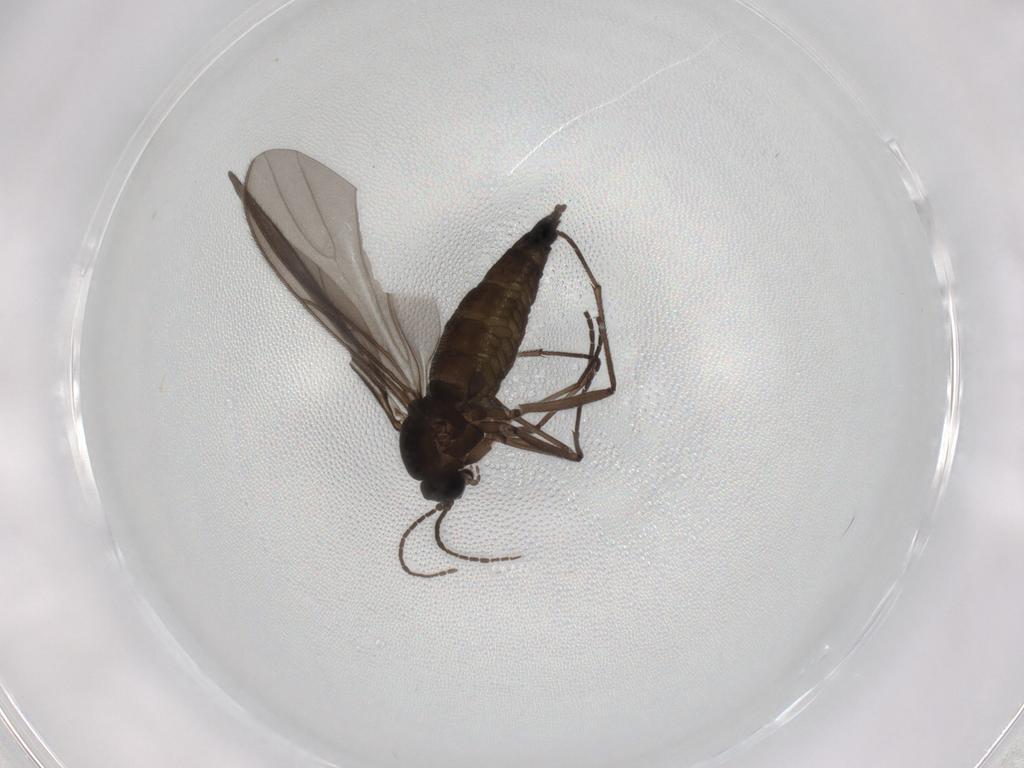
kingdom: Animalia
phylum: Arthropoda
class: Insecta
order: Diptera
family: Sciaridae
